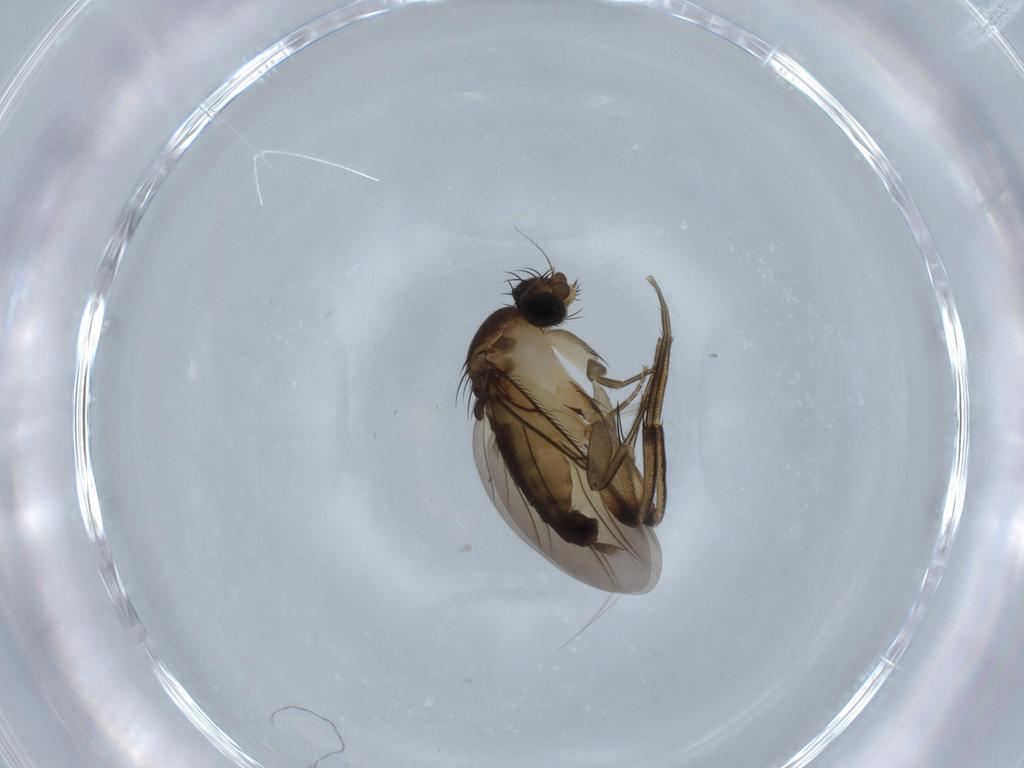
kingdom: Animalia
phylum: Arthropoda
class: Insecta
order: Diptera
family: Phoridae
